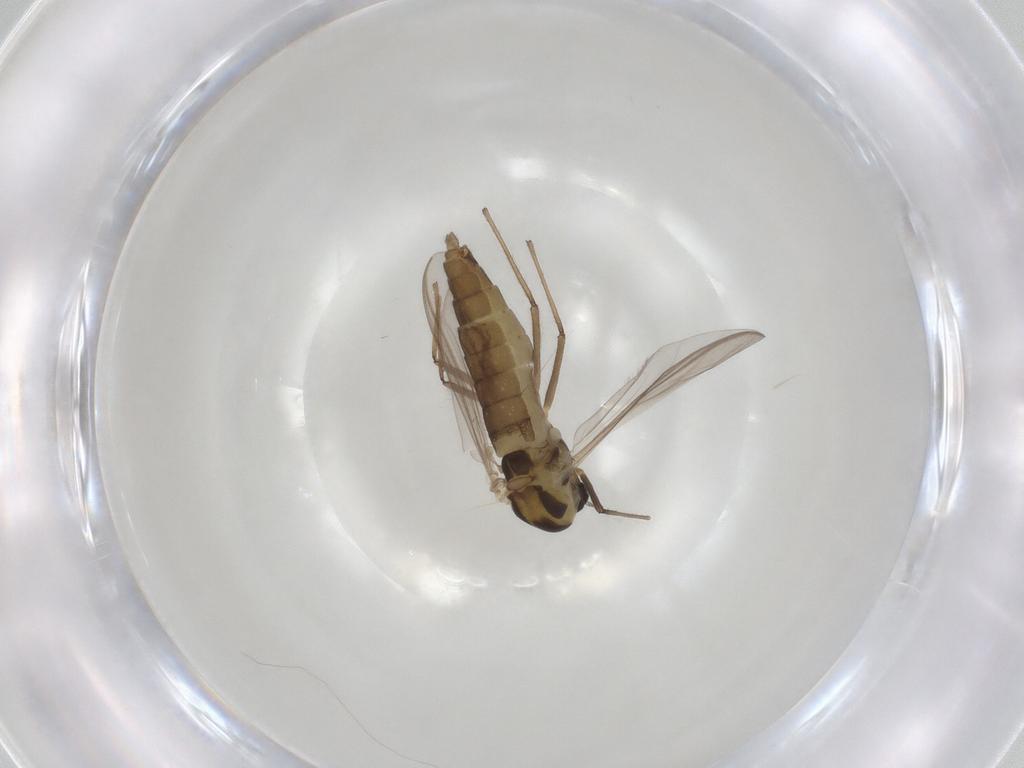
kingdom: Animalia
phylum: Arthropoda
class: Insecta
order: Diptera
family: Chironomidae
